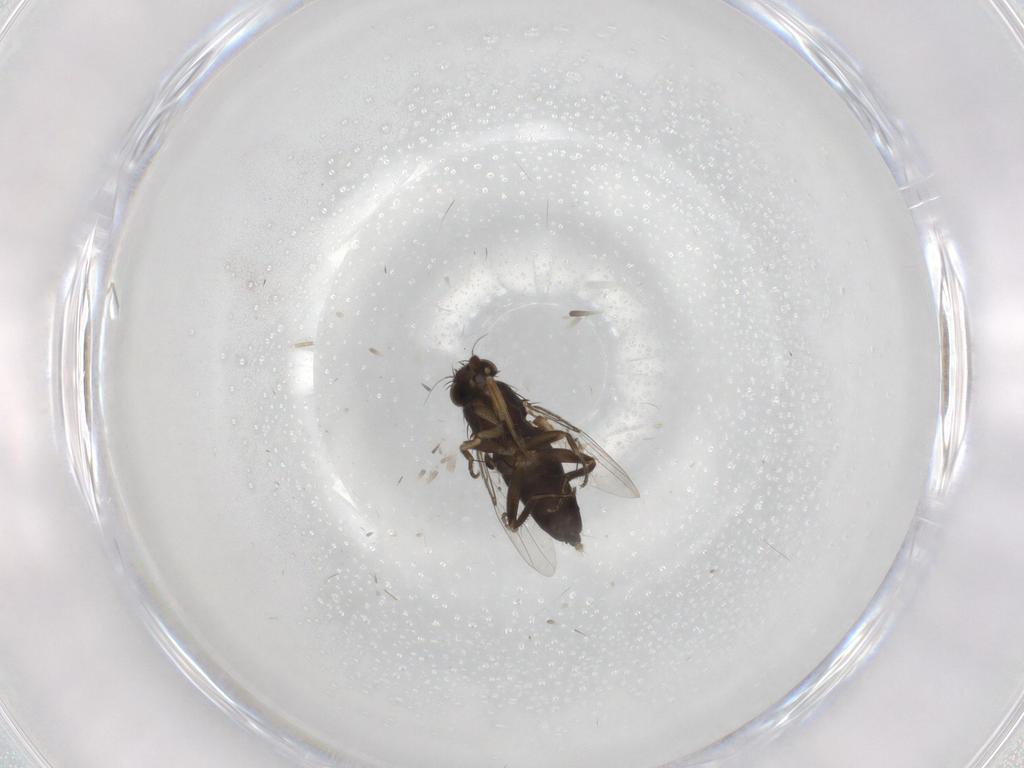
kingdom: Animalia
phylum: Arthropoda
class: Insecta
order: Diptera
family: Phoridae
